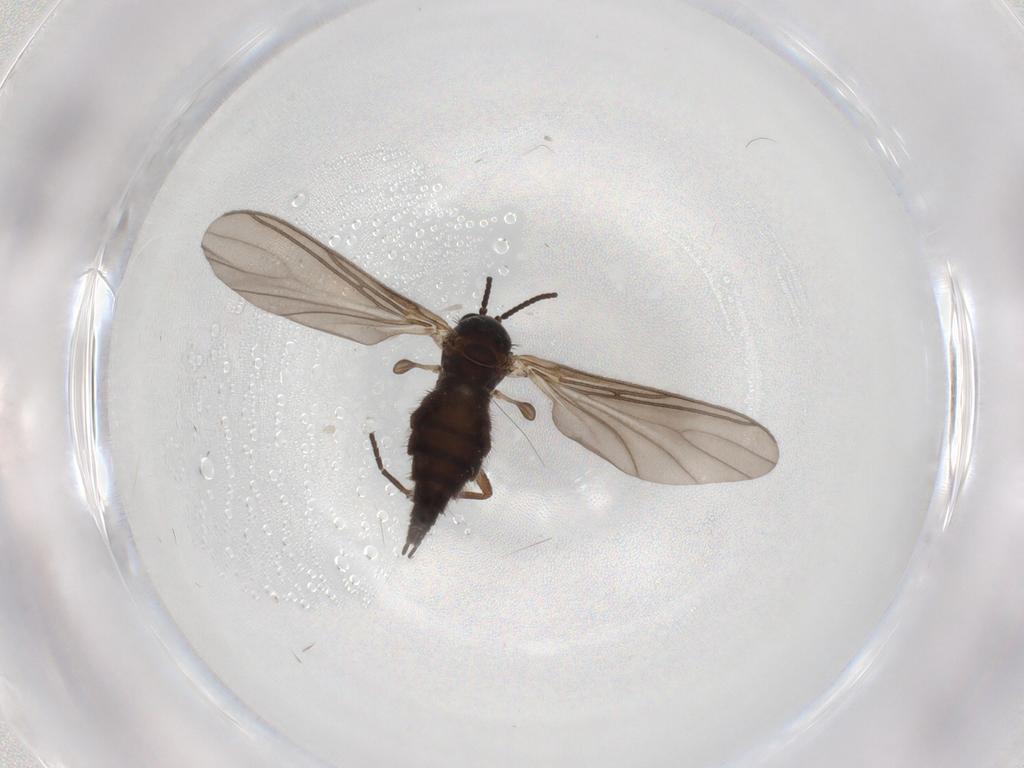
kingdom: Animalia
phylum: Arthropoda
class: Insecta
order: Diptera
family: Sciaridae
